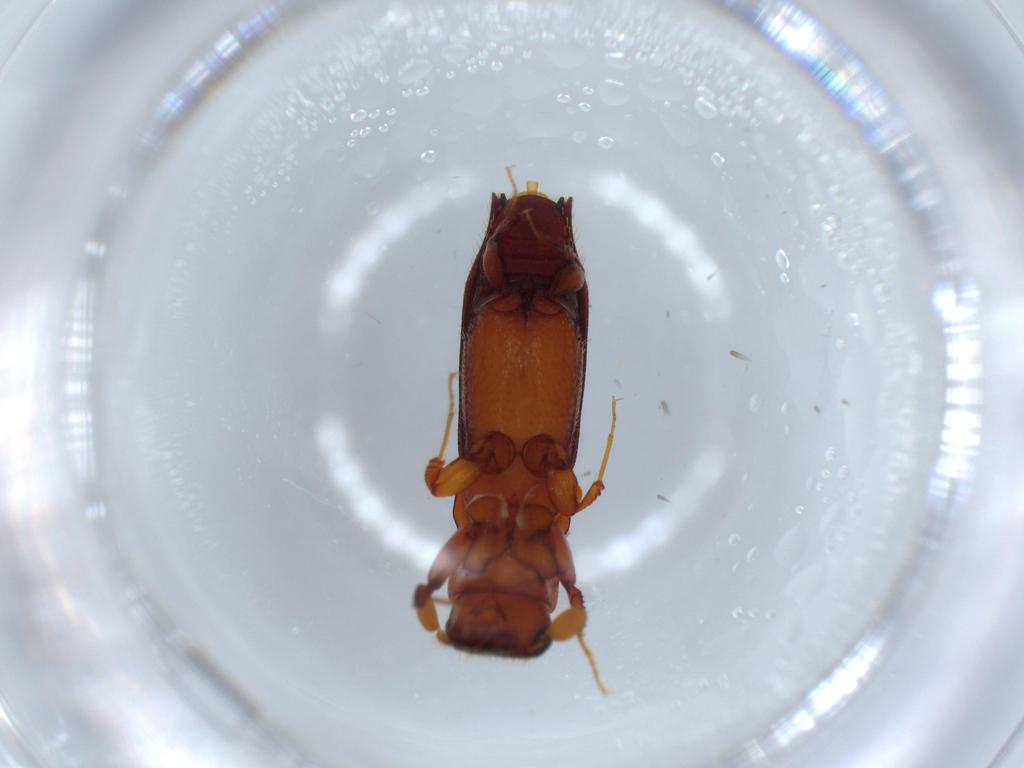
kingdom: Animalia
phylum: Arthropoda
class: Insecta
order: Coleoptera
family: Curculionidae
